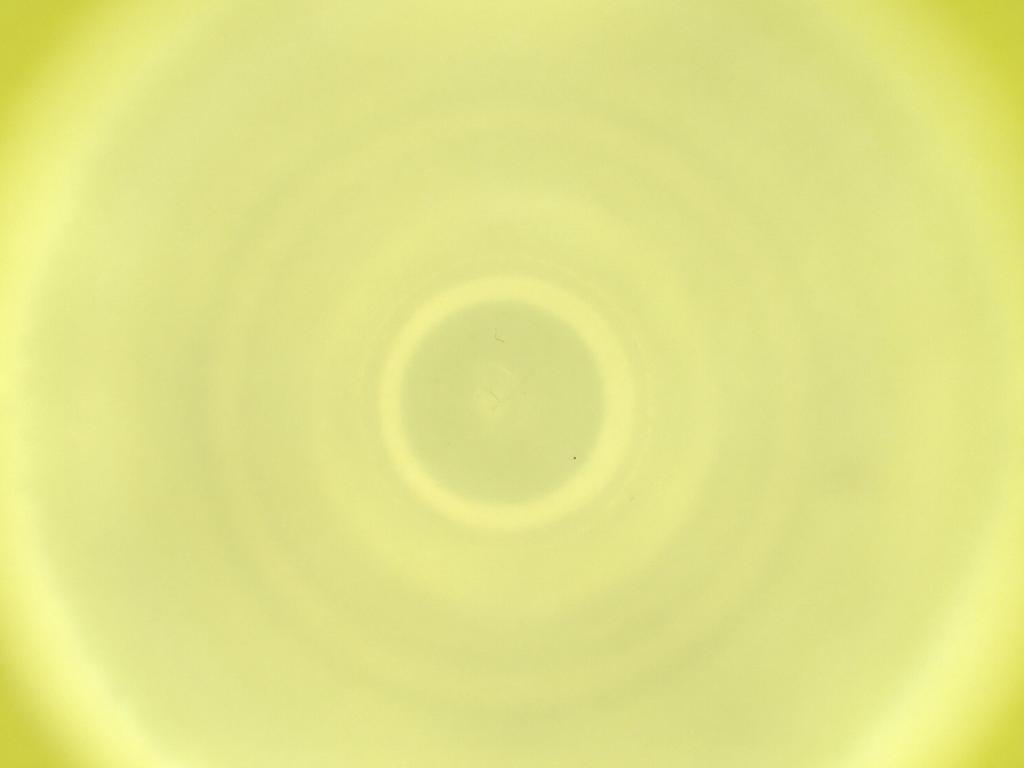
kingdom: Animalia
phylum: Arthropoda
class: Insecta
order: Diptera
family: Cecidomyiidae
